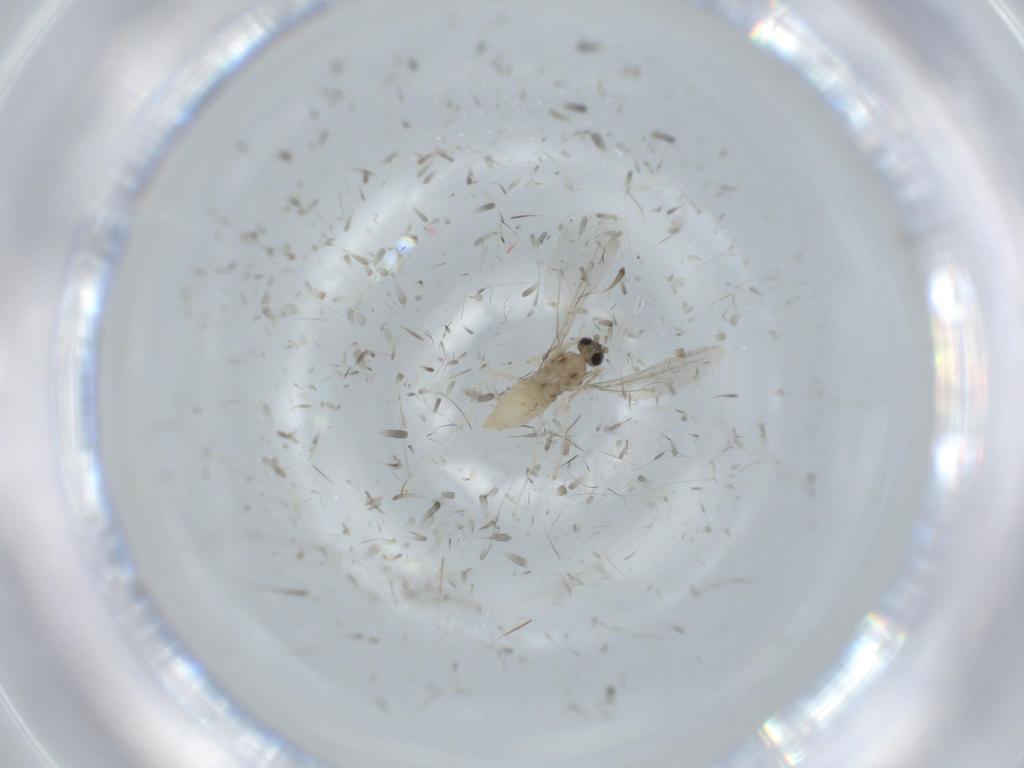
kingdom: Animalia
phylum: Arthropoda
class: Insecta
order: Diptera
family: Cecidomyiidae
